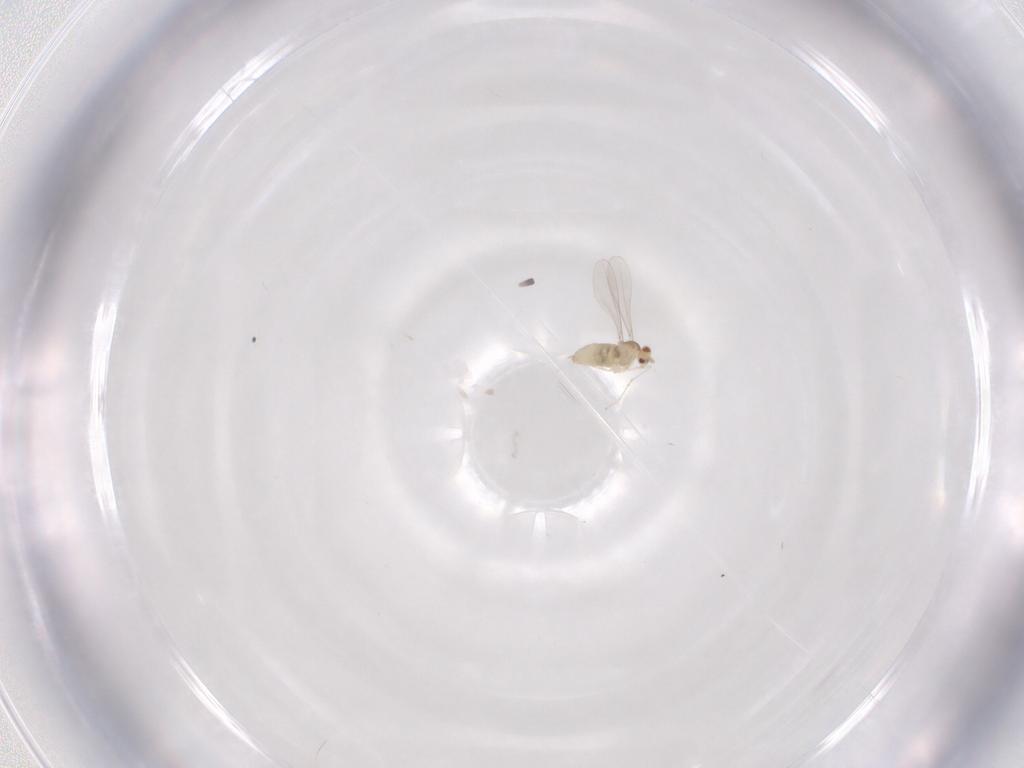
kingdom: Animalia
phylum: Arthropoda
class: Insecta
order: Diptera
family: Cecidomyiidae
